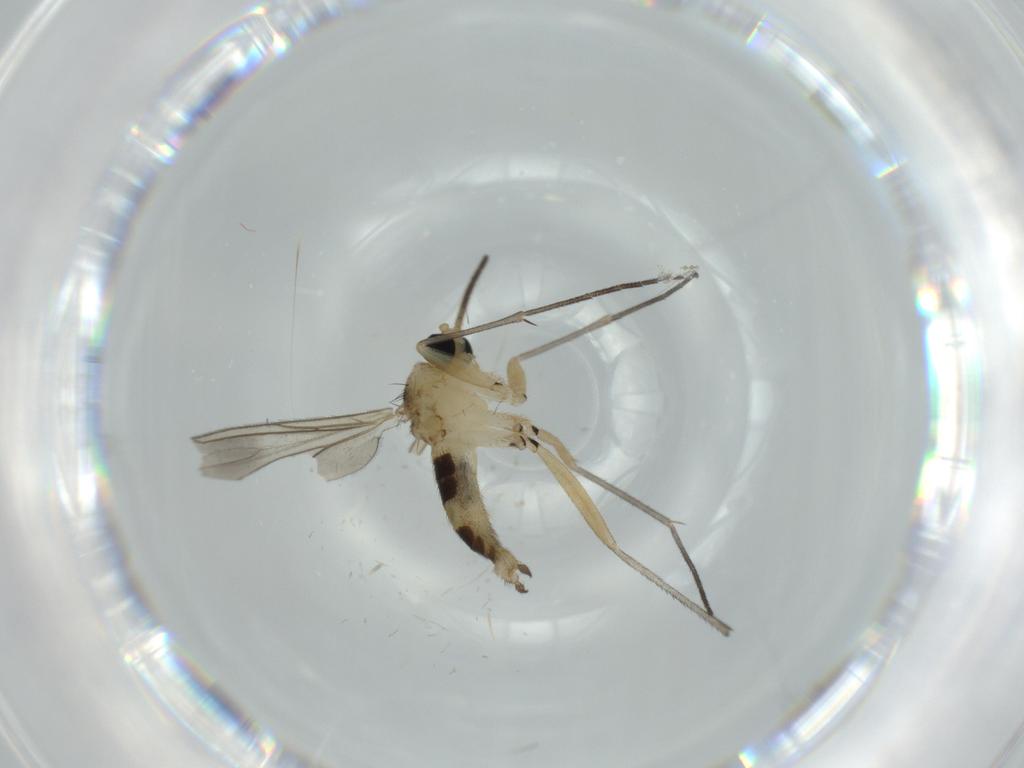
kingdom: Animalia
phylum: Arthropoda
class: Insecta
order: Diptera
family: Sciaridae
